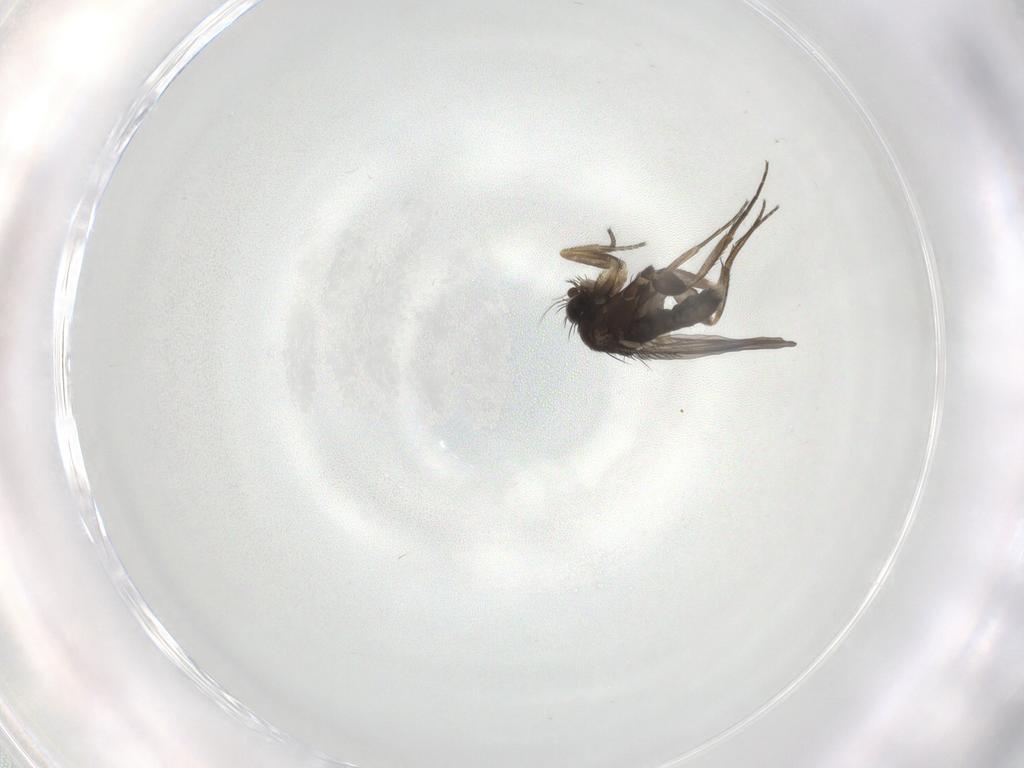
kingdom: Animalia
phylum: Arthropoda
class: Insecta
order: Diptera
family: Phoridae
